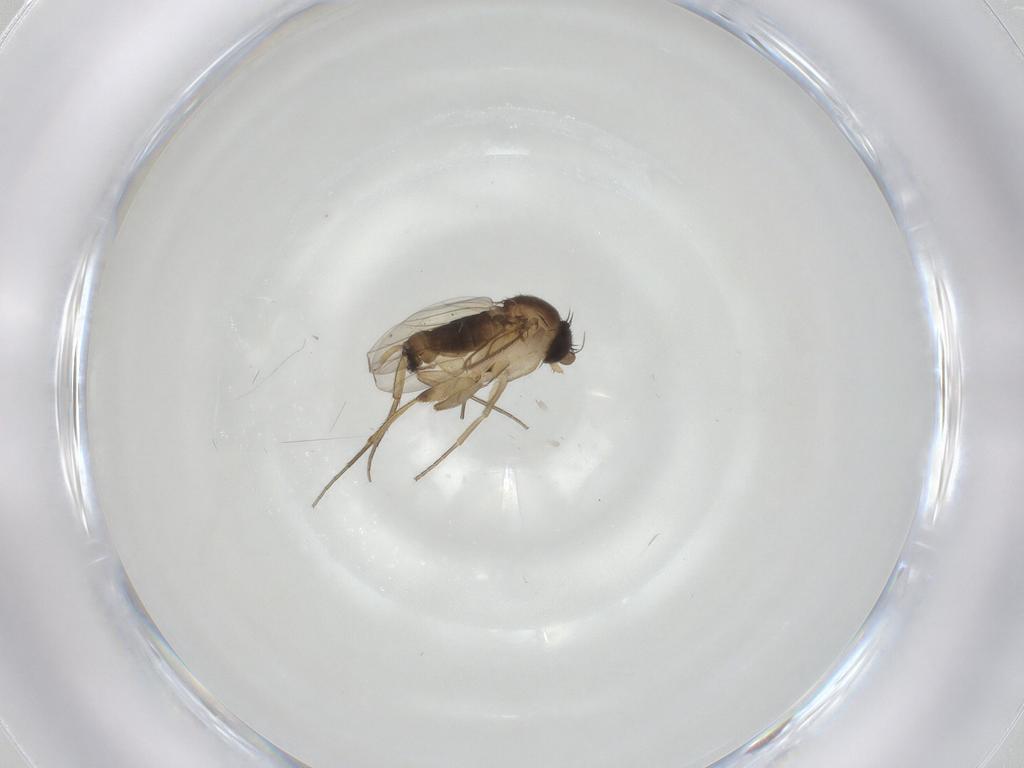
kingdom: Animalia
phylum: Arthropoda
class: Insecta
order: Diptera
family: Phoridae
